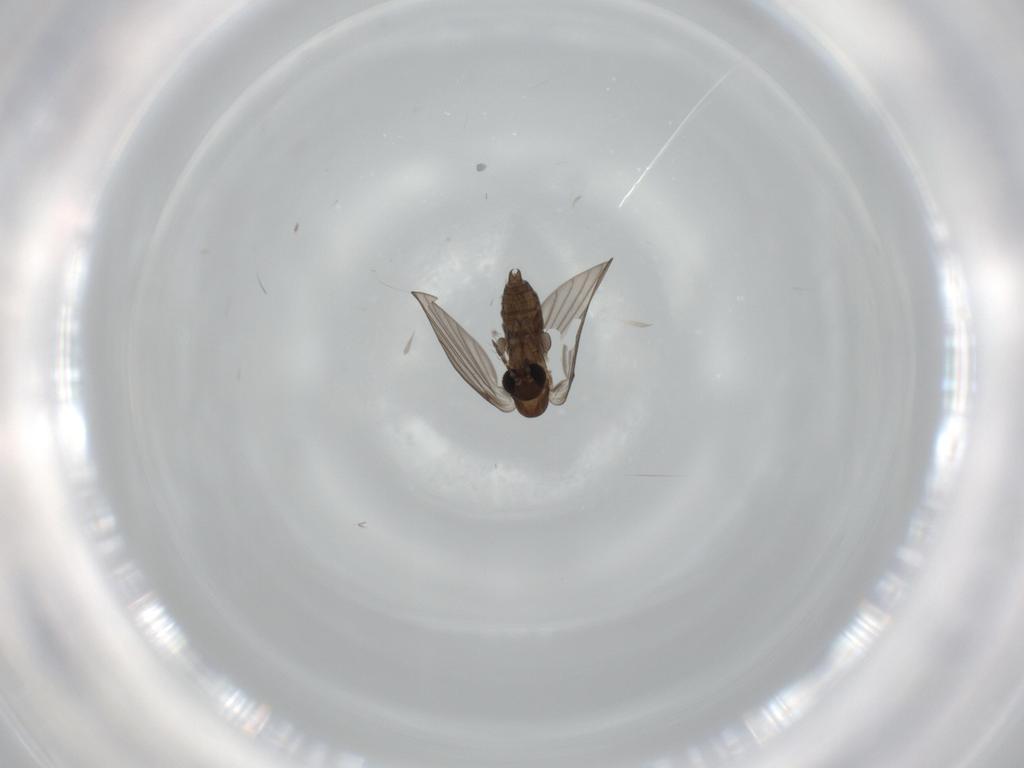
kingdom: Animalia
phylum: Arthropoda
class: Insecta
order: Diptera
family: Psychodidae
